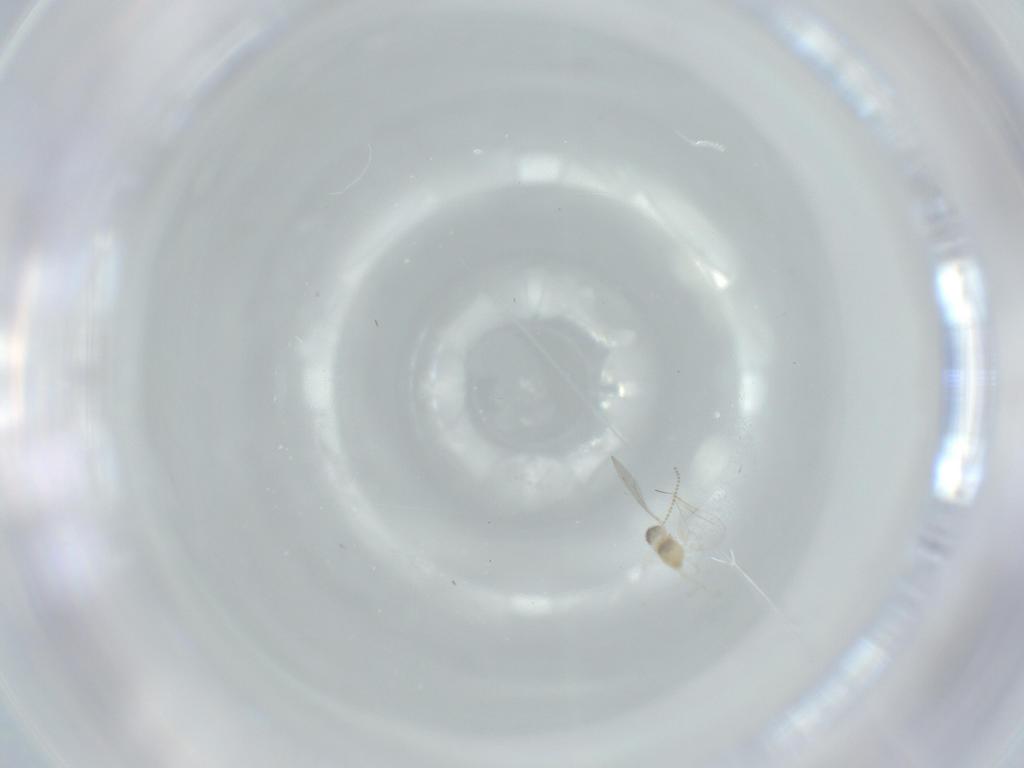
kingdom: Animalia
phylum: Arthropoda
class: Insecta
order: Diptera
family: Cecidomyiidae
